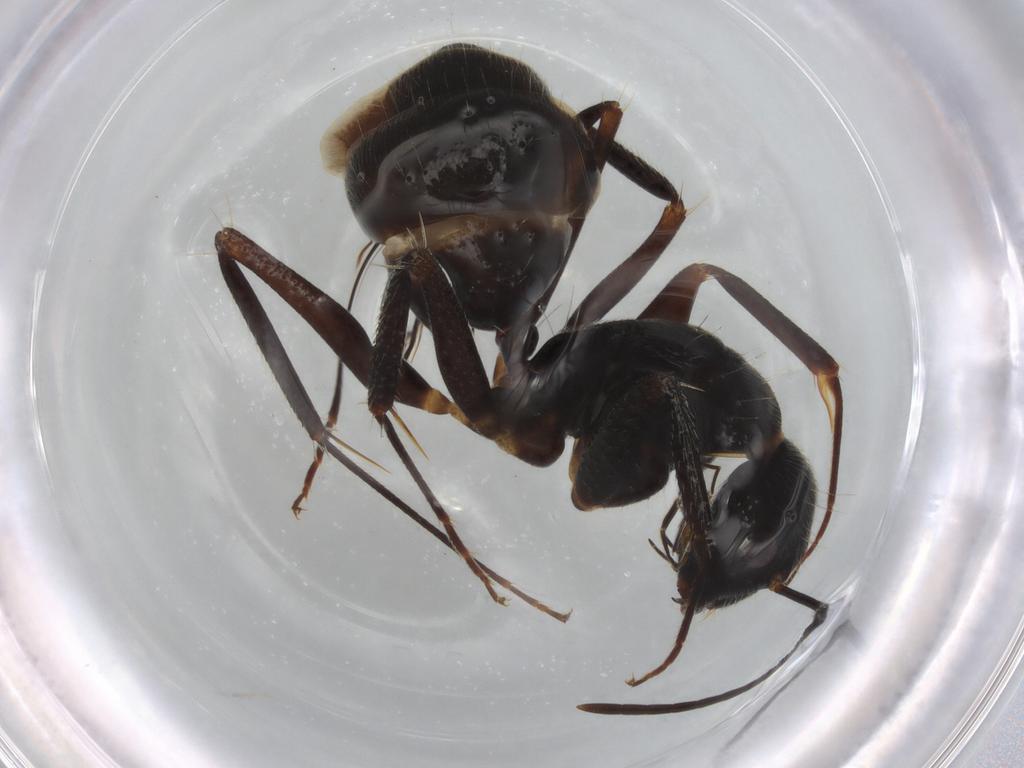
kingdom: Animalia
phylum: Arthropoda
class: Insecta
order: Hymenoptera
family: Formicidae
